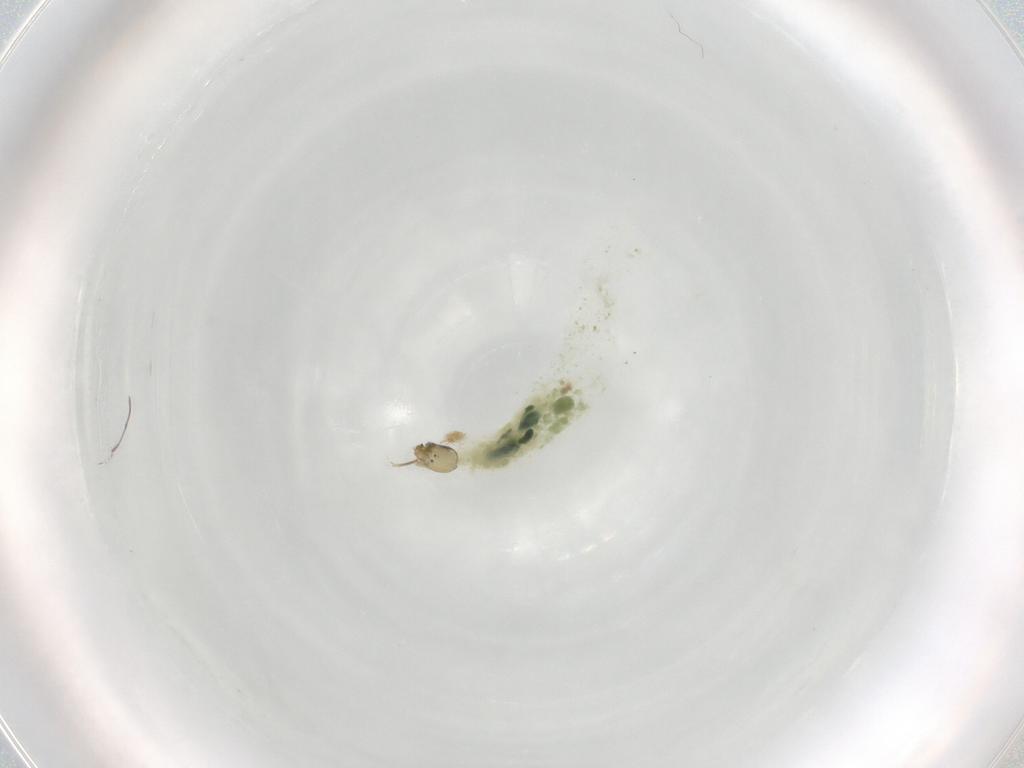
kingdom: Animalia
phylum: Arthropoda
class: Insecta
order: Diptera
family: Chironomidae
